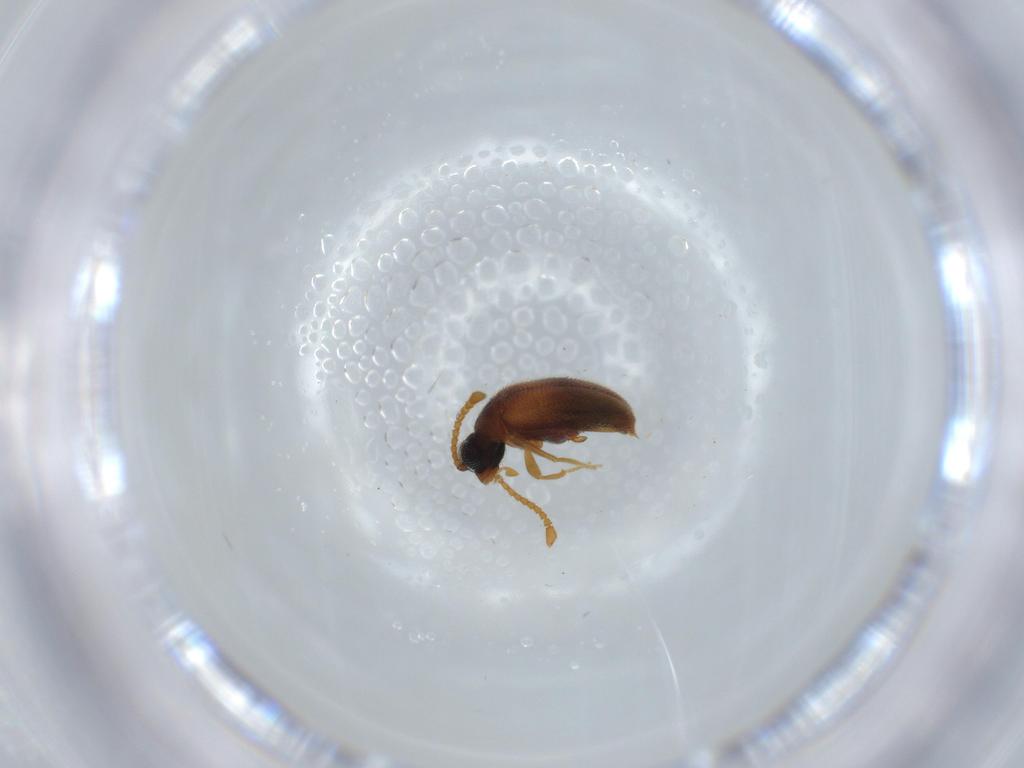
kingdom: Animalia
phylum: Arthropoda
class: Insecta
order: Coleoptera
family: Aderidae
